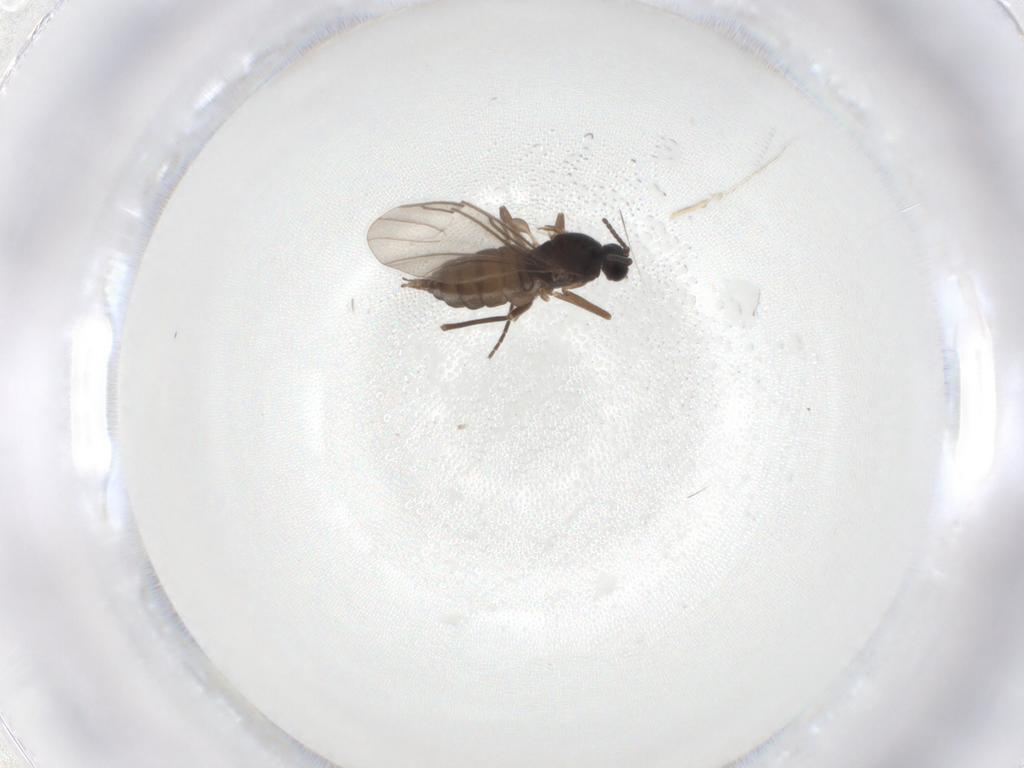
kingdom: Animalia
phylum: Arthropoda
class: Insecta
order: Diptera
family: Sciaridae
